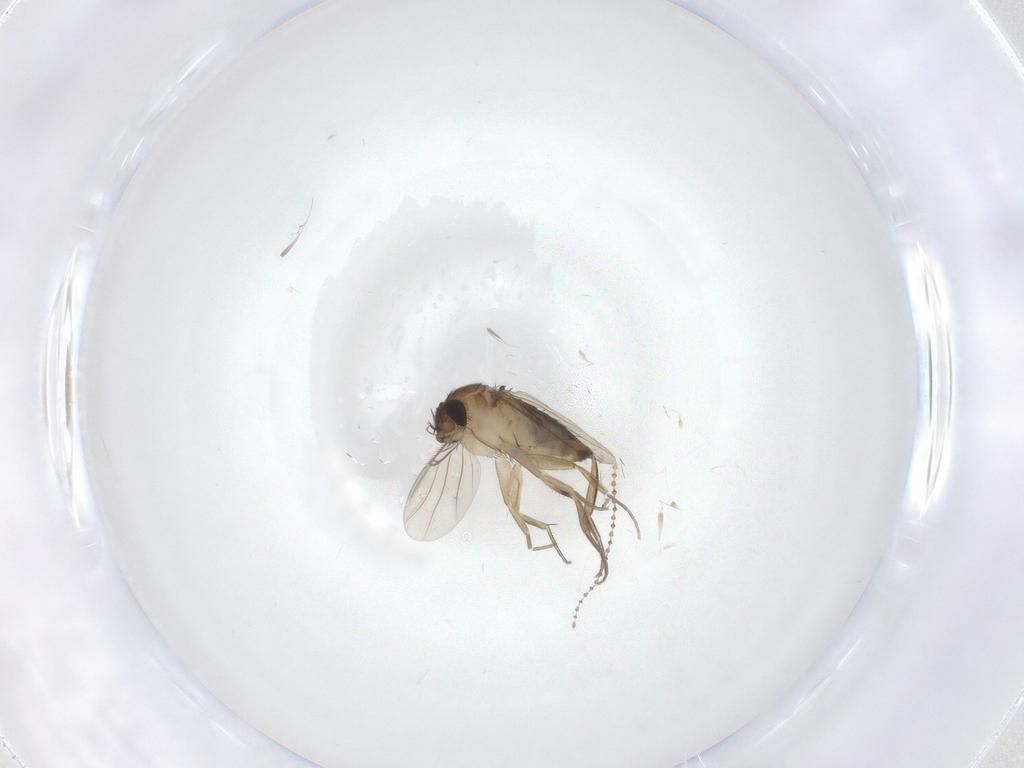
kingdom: Animalia
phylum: Arthropoda
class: Insecta
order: Diptera
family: Phoridae
